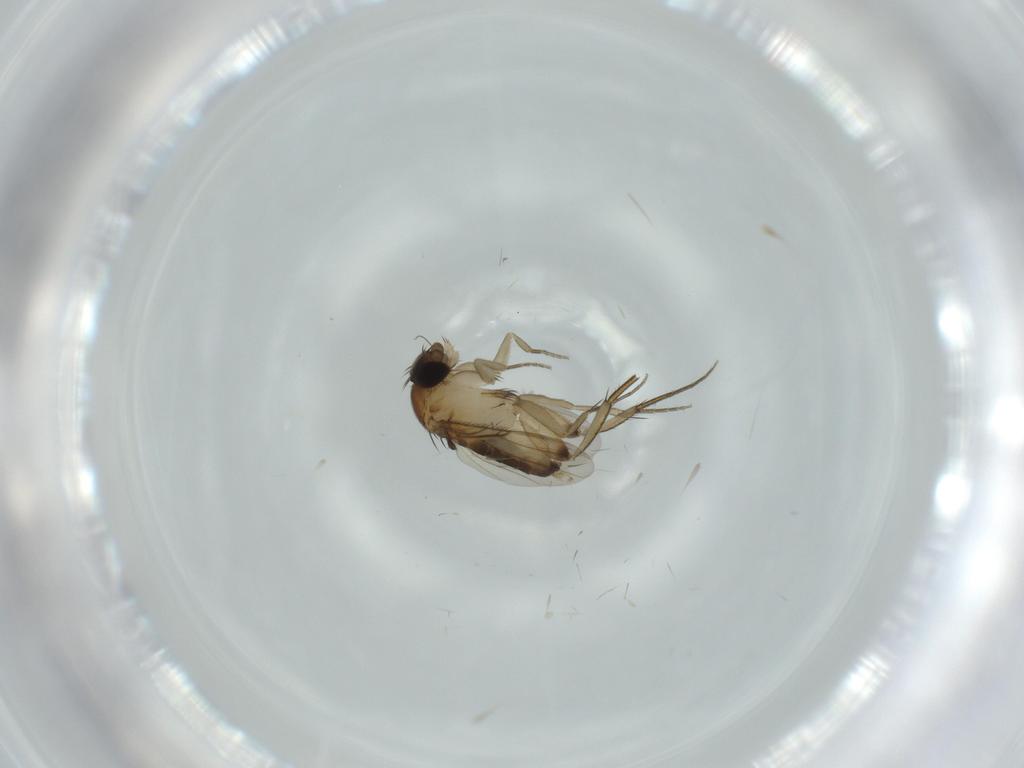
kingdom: Animalia
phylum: Arthropoda
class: Insecta
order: Diptera
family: Phoridae
